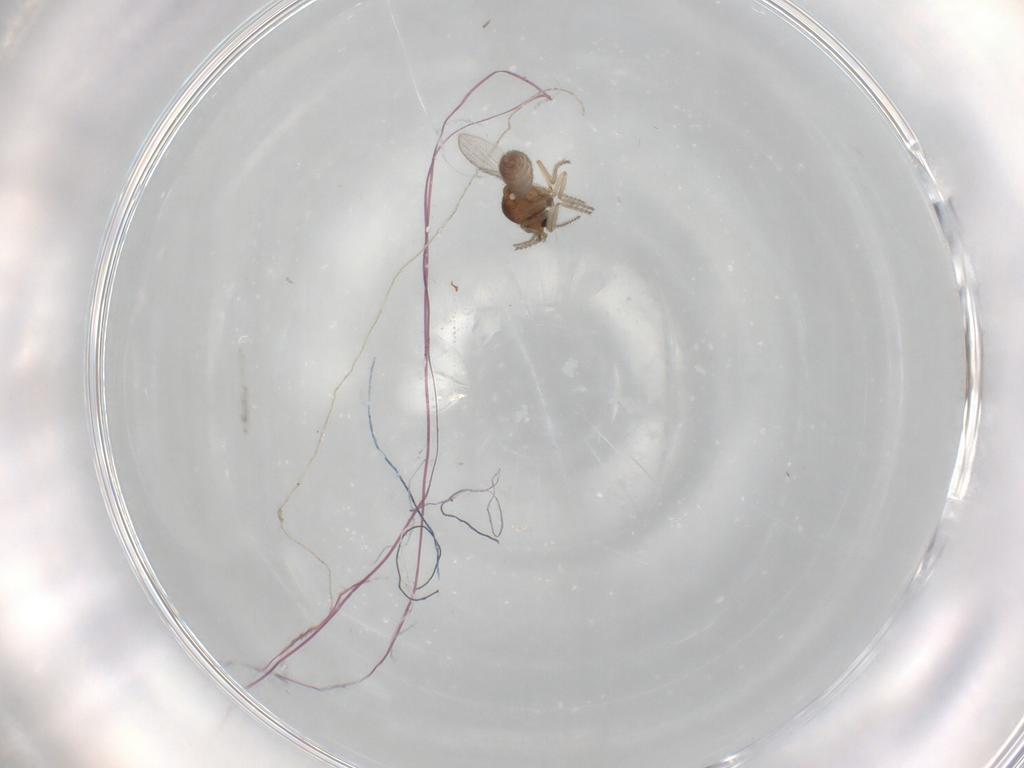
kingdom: Animalia
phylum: Arthropoda
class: Insecta
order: Diptera
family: Ceratopogonidae
